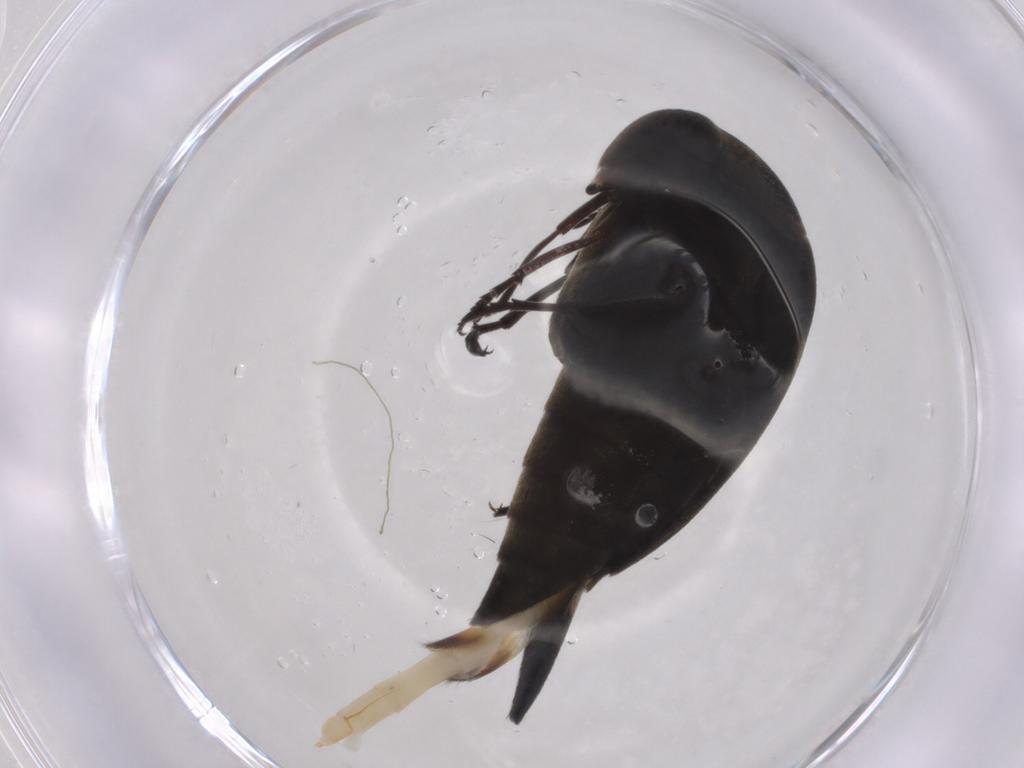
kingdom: Animalia
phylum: Arthropoda
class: Insecta
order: Coleoptera
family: Mordellidae
